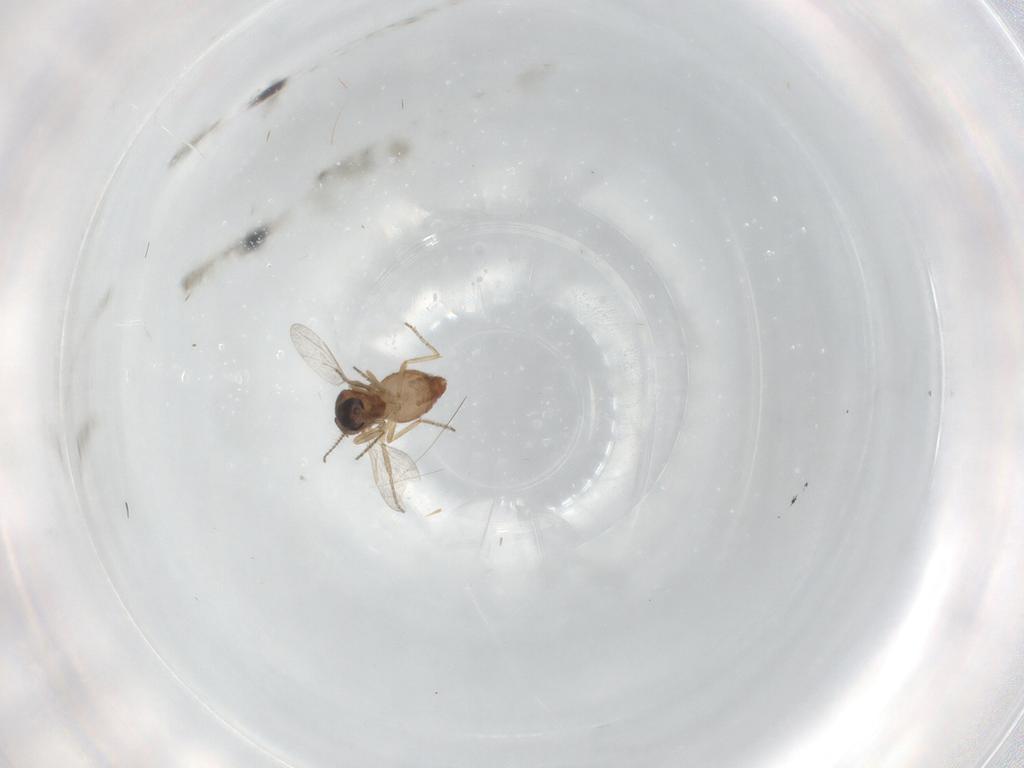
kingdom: Animalia
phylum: Arthropoda
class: Insecta
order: Diptera
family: Ceratopogonidae
